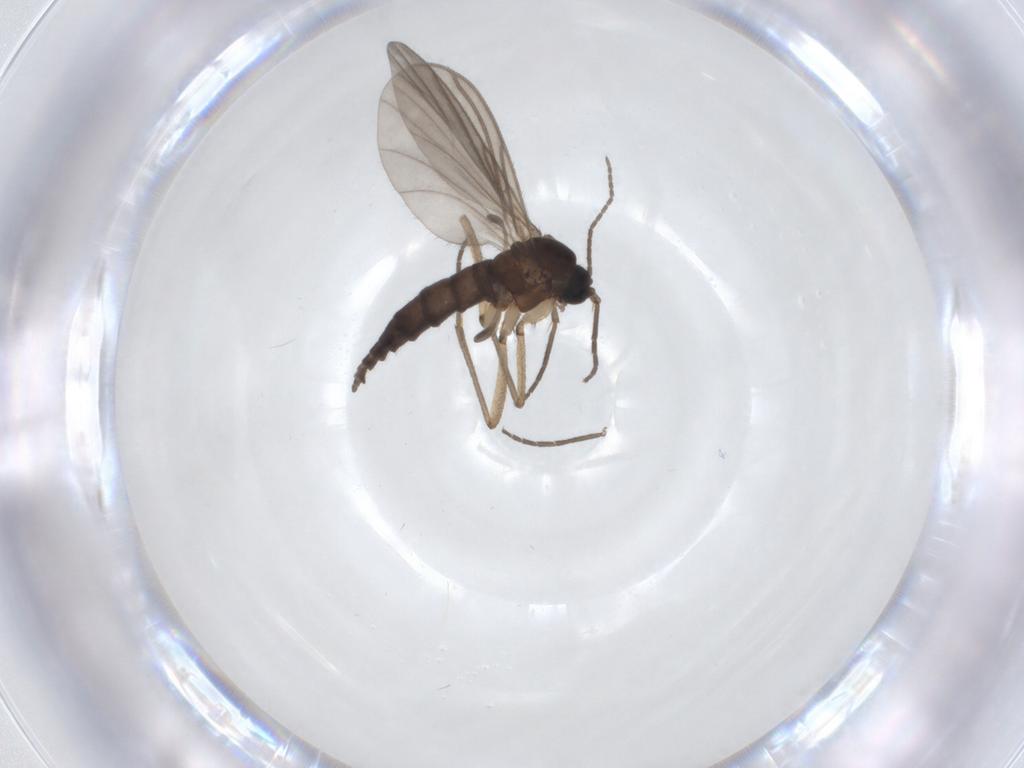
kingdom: Animalia
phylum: Arthropoda
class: Insecta
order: Diptera
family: Sciaridae
